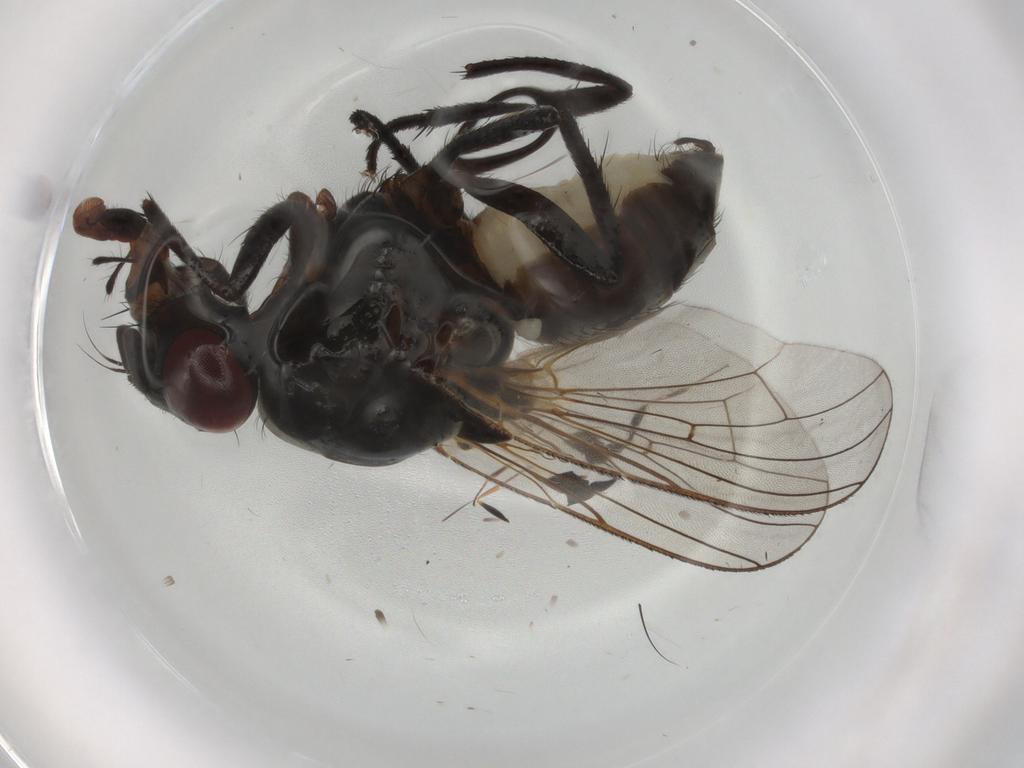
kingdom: Animalia
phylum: Arthropoda
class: Insecta
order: Diptera
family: Anthomyiidae
